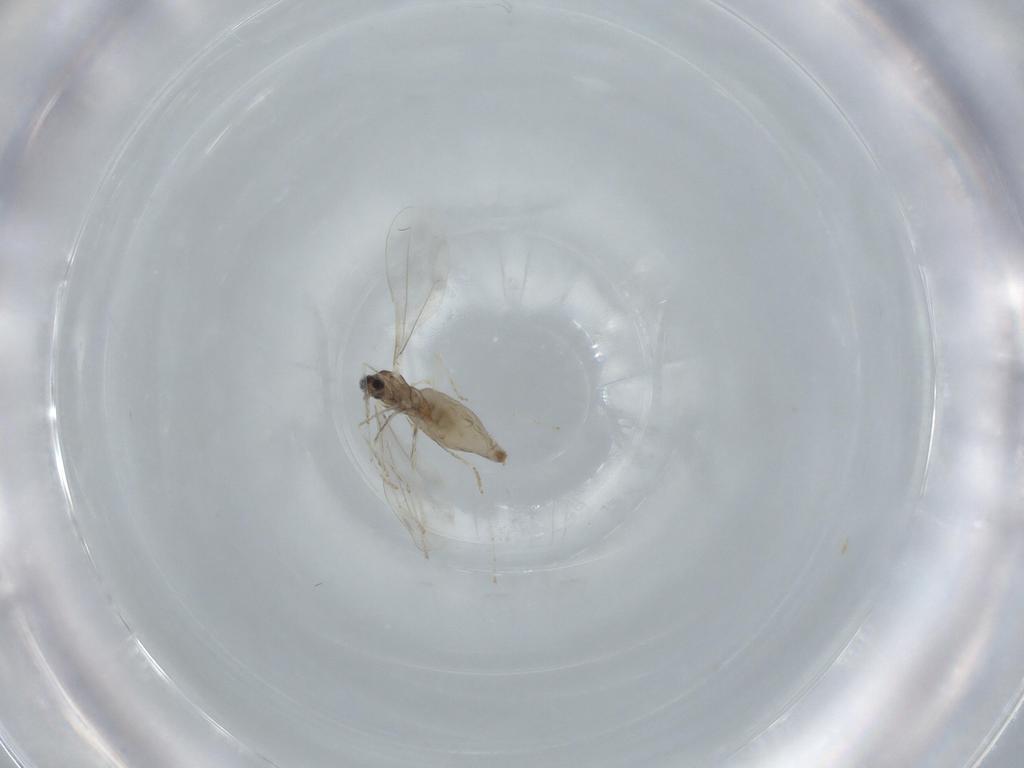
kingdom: Animalia
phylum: Arthropoda
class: Insecta
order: Diptera
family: Cecidomyiidae
